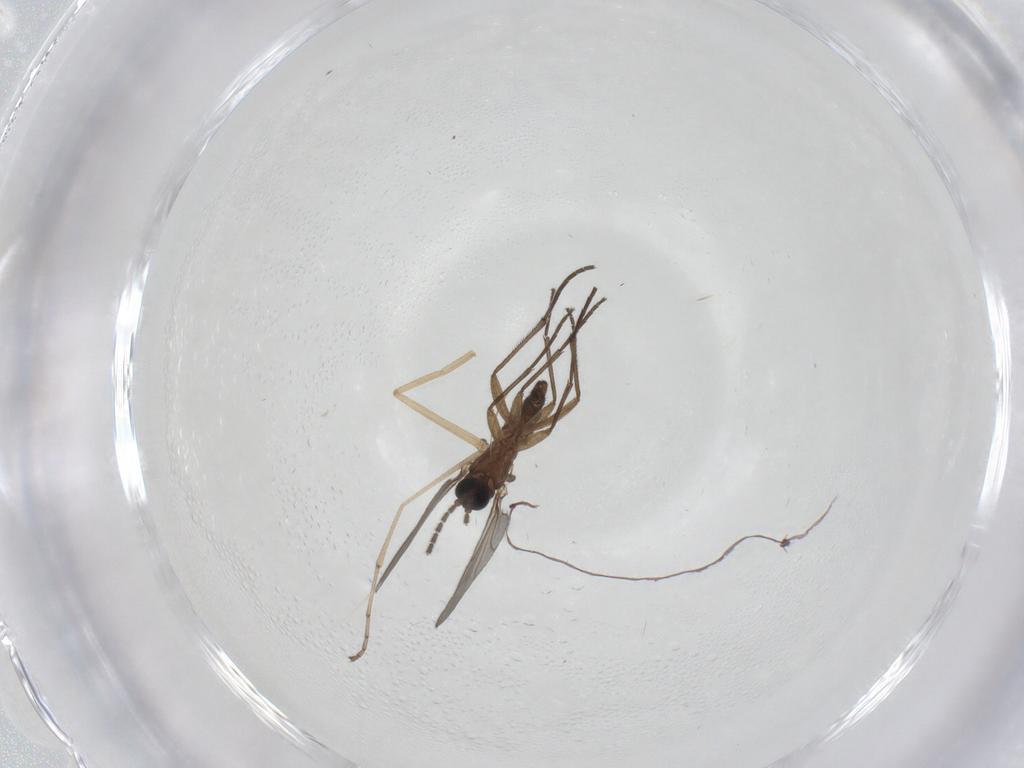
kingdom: Animalia
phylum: Arthropoda
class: Insecta
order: Diptera
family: Sciaridae
